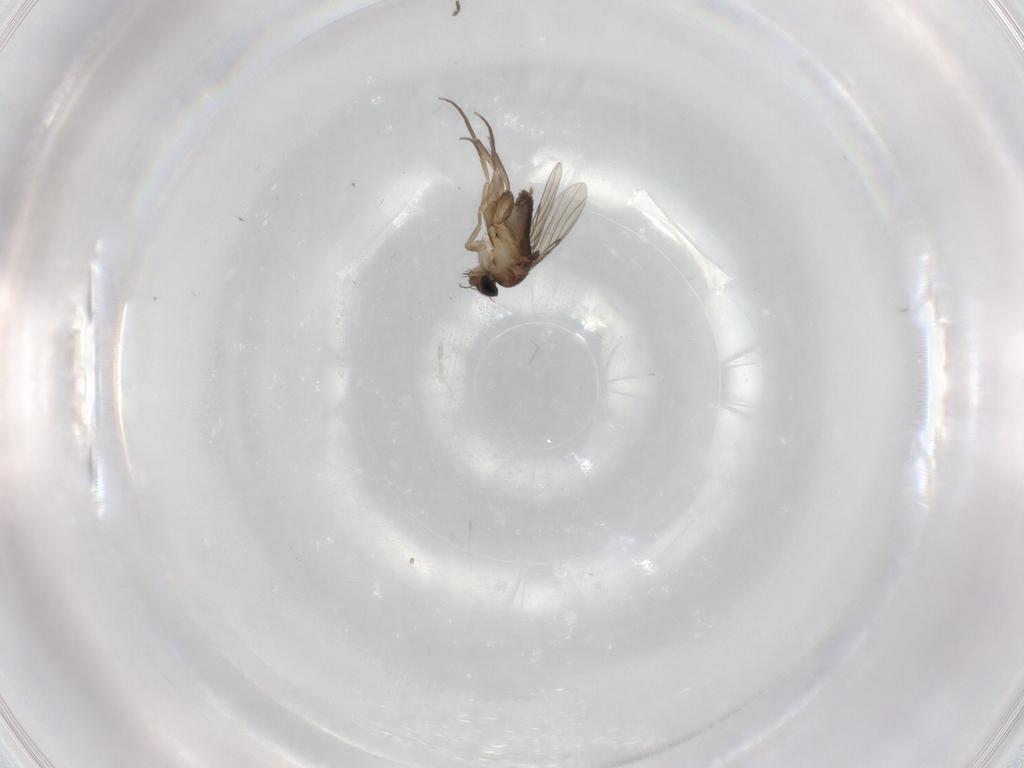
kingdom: Animalia
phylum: Arthropoda
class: Insecta
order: Diptera
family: Phoridae
